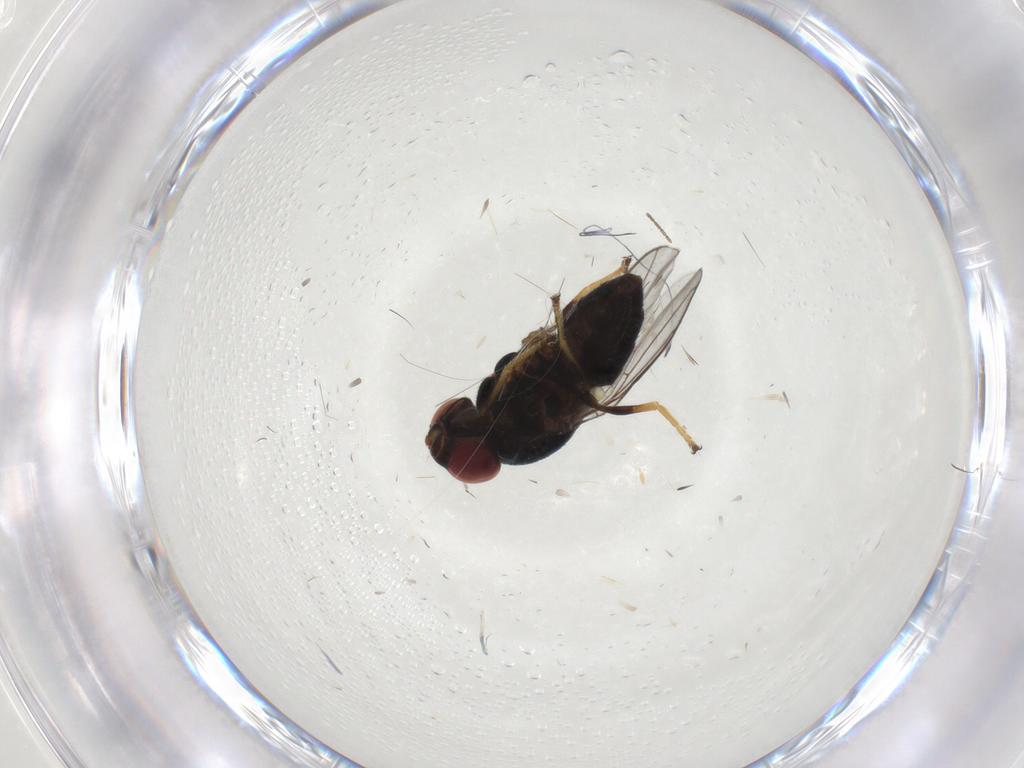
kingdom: Animalia
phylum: Arthropoda
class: Insecta
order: Diptera
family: Chloropidae
